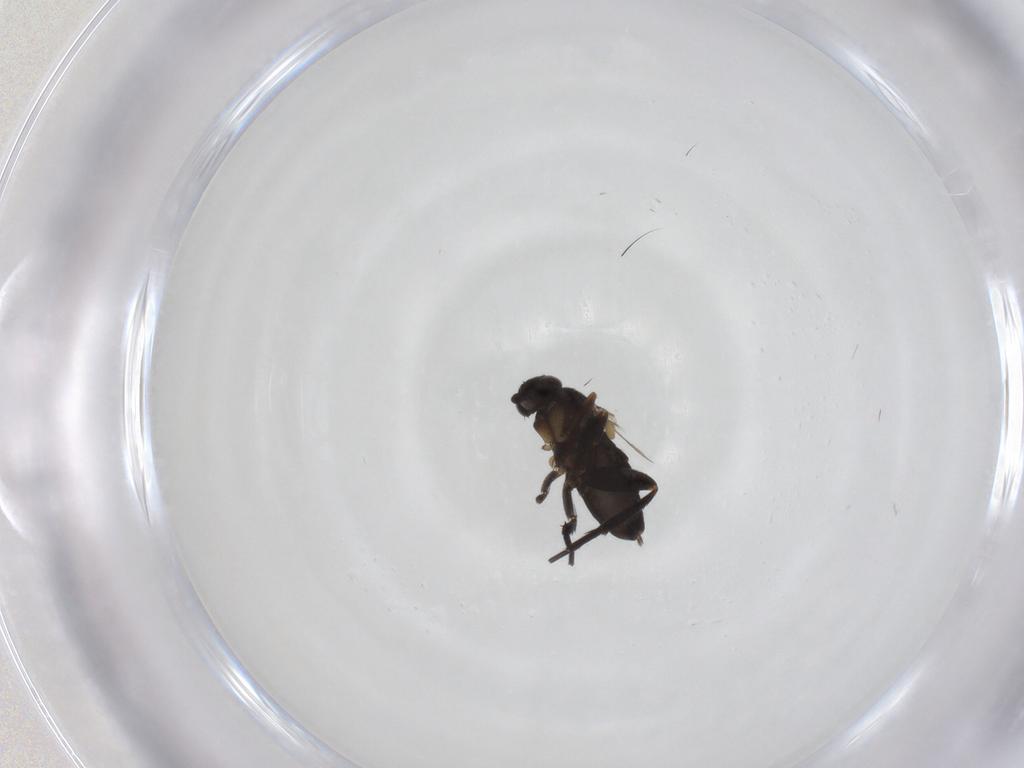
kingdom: Animalia
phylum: Arthropoda
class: Insecta
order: Diptera
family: Phoridae
